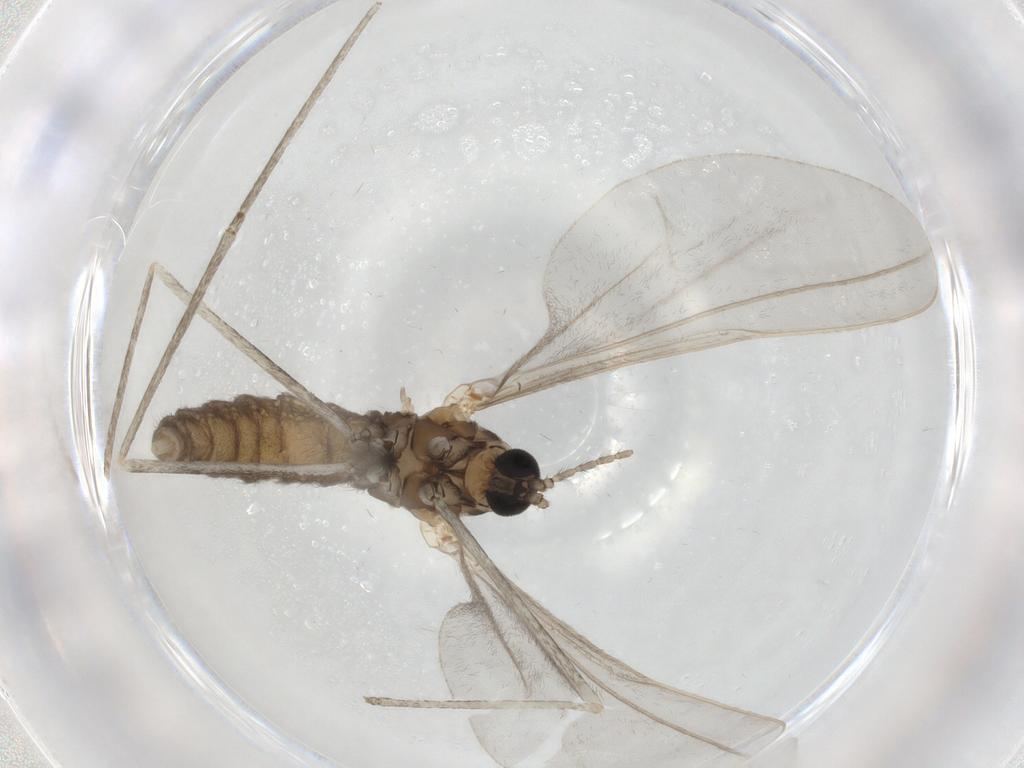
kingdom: Animalia
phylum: Arthropoda
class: Insecta
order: Diptera
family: Cecidomyiidae
